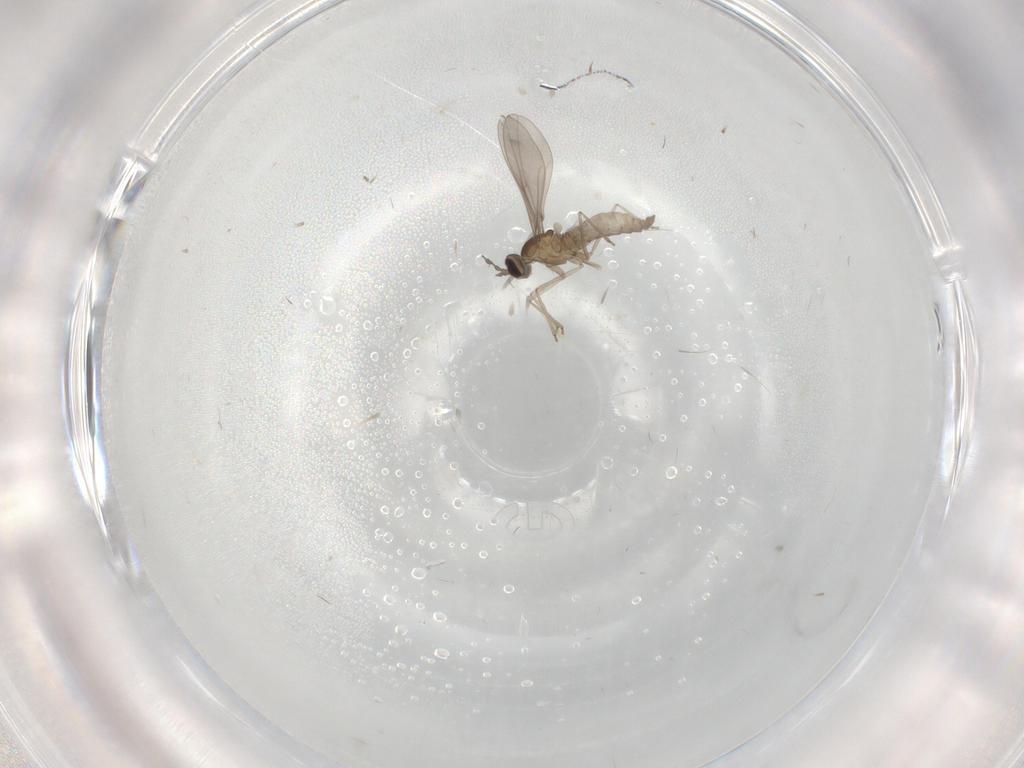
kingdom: Animalia
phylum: Arthropoda
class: Insecta
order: Diptera
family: Cecidomyiidae
